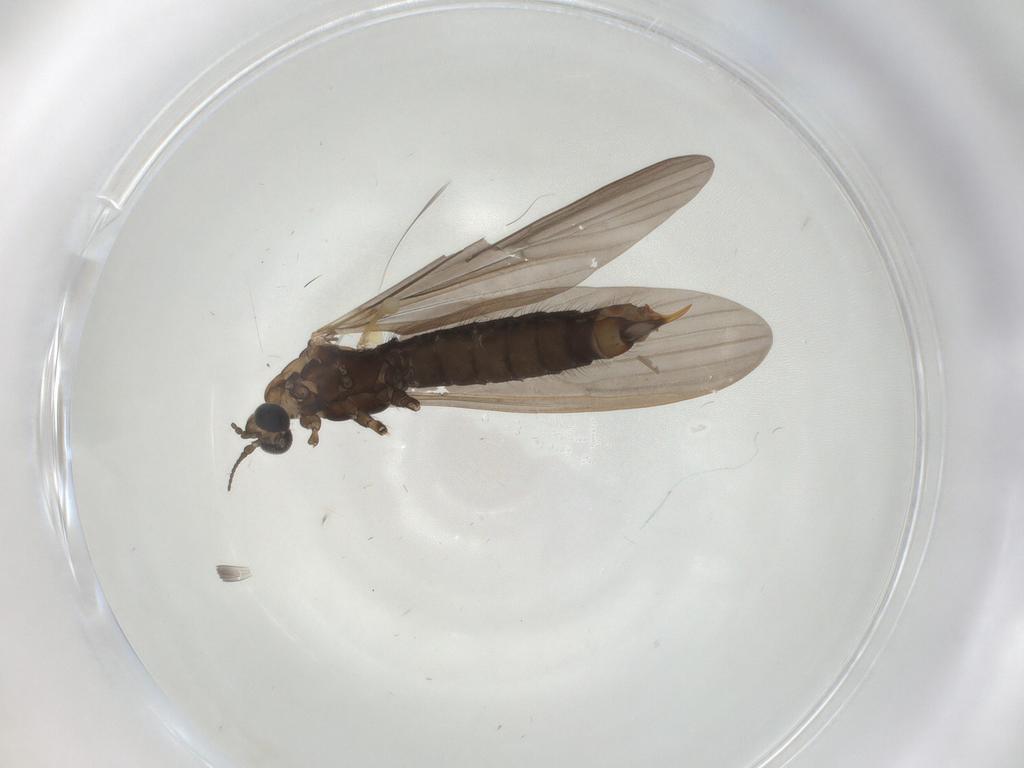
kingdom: Animalia
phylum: Arthropoda
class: Insecta
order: Diptera
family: Limoniidae
